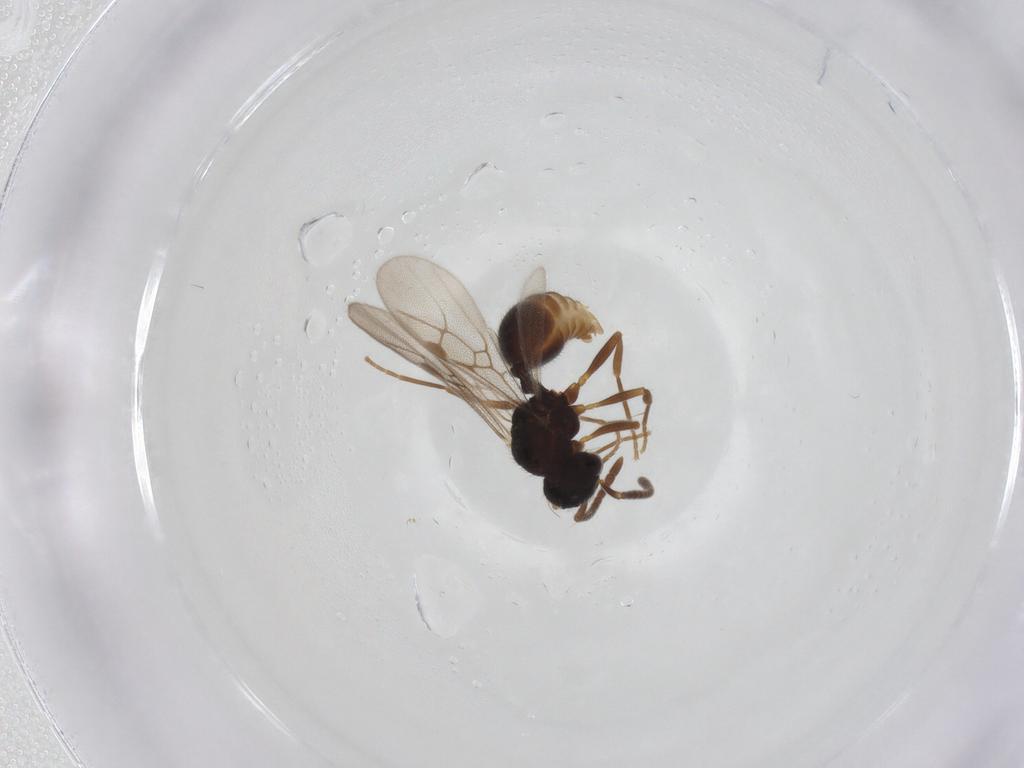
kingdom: Animalia
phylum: Arthropoda
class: Insecta
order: Hymenoptera
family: Formicidae
